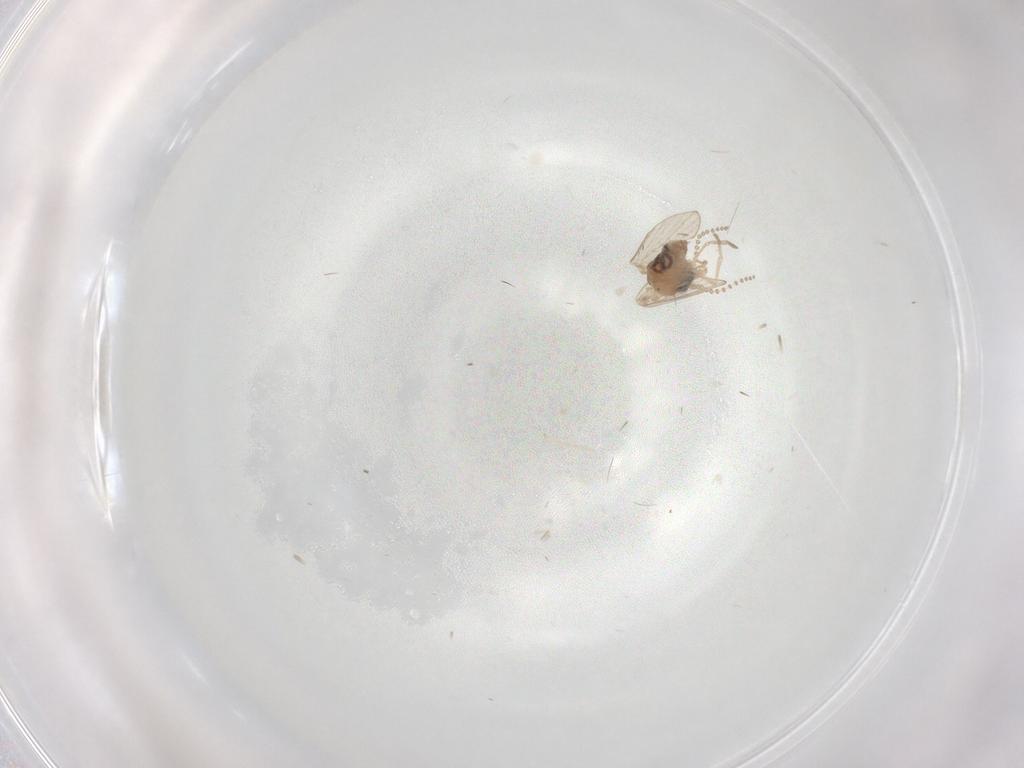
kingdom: Animalia
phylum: Arthropoda
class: Insecta
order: Diptera
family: Psychodidae
